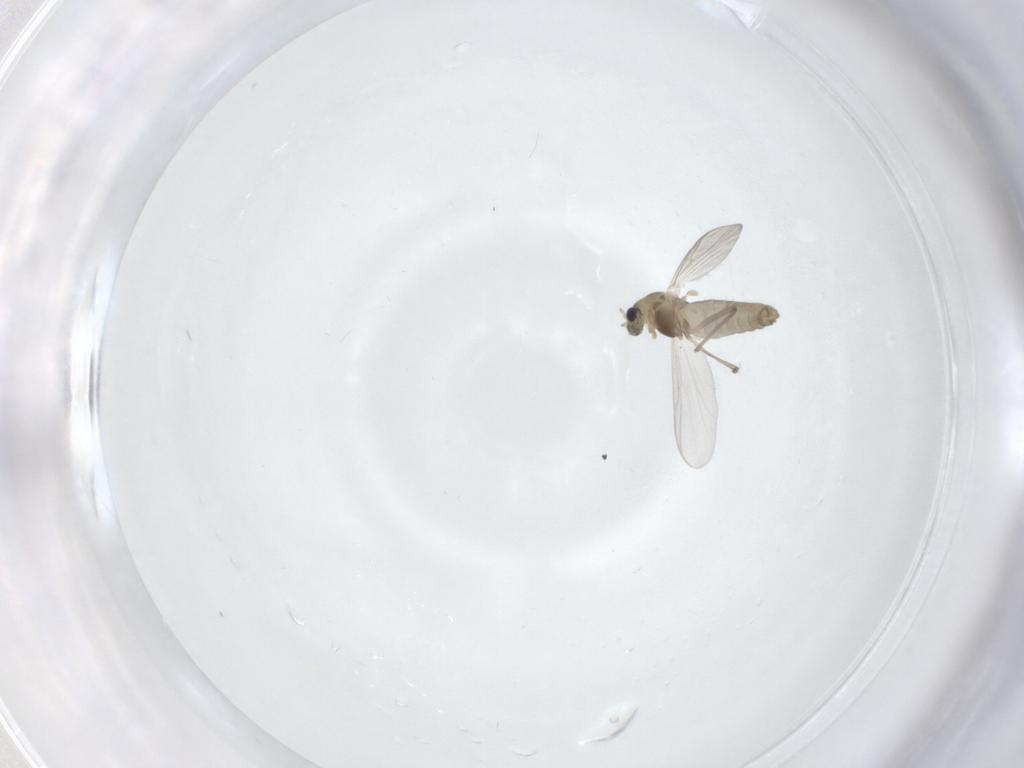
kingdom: Animalia
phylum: Arthropoda
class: Insecta
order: Diptera
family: Chironomidae
